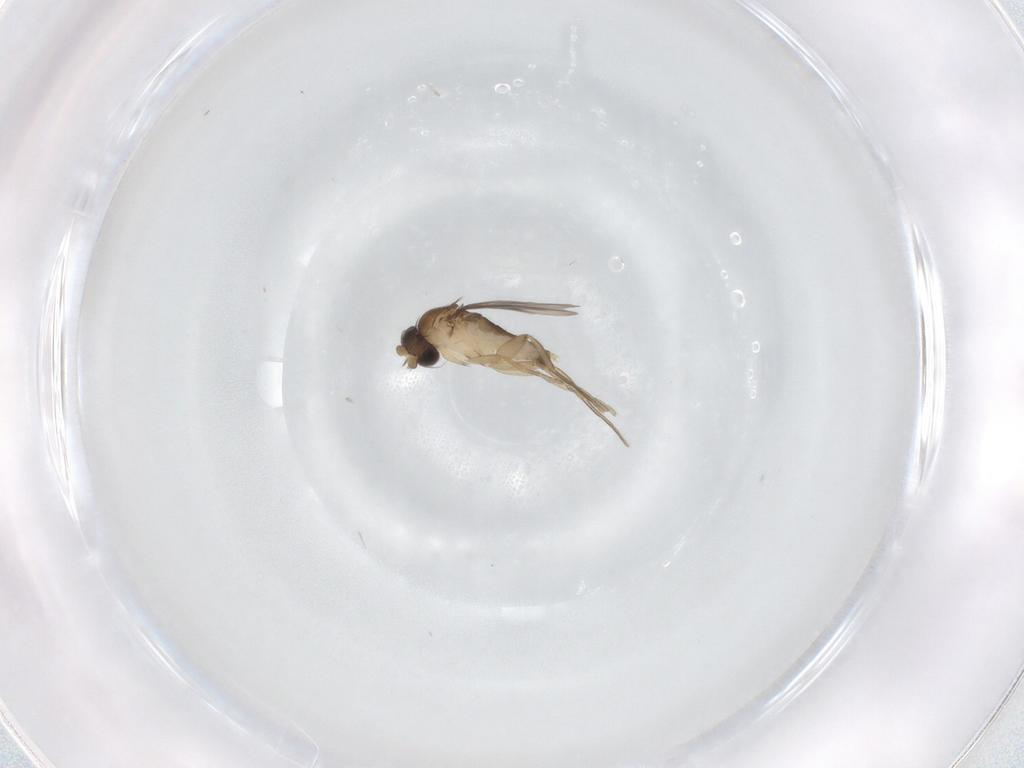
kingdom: Animalia
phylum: Arthropoda
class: Insecta
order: Diptera
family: Phoridae
